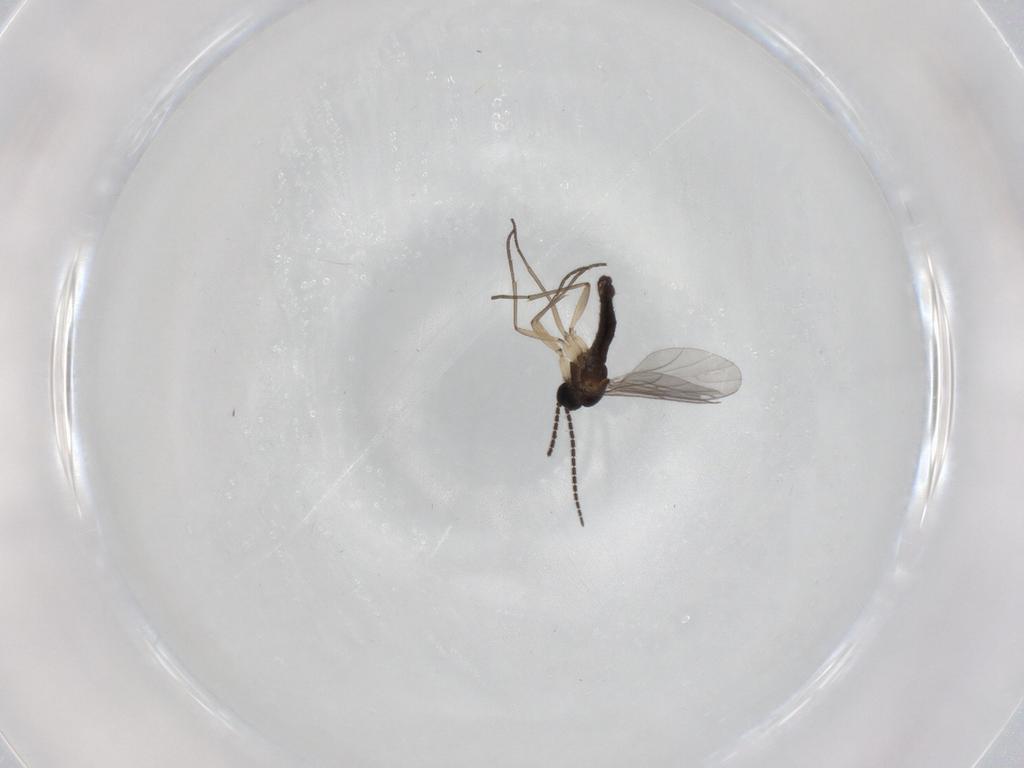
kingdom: Animalia
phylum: Arthropoda
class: Insecta
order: Diptera
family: Sciaridae
